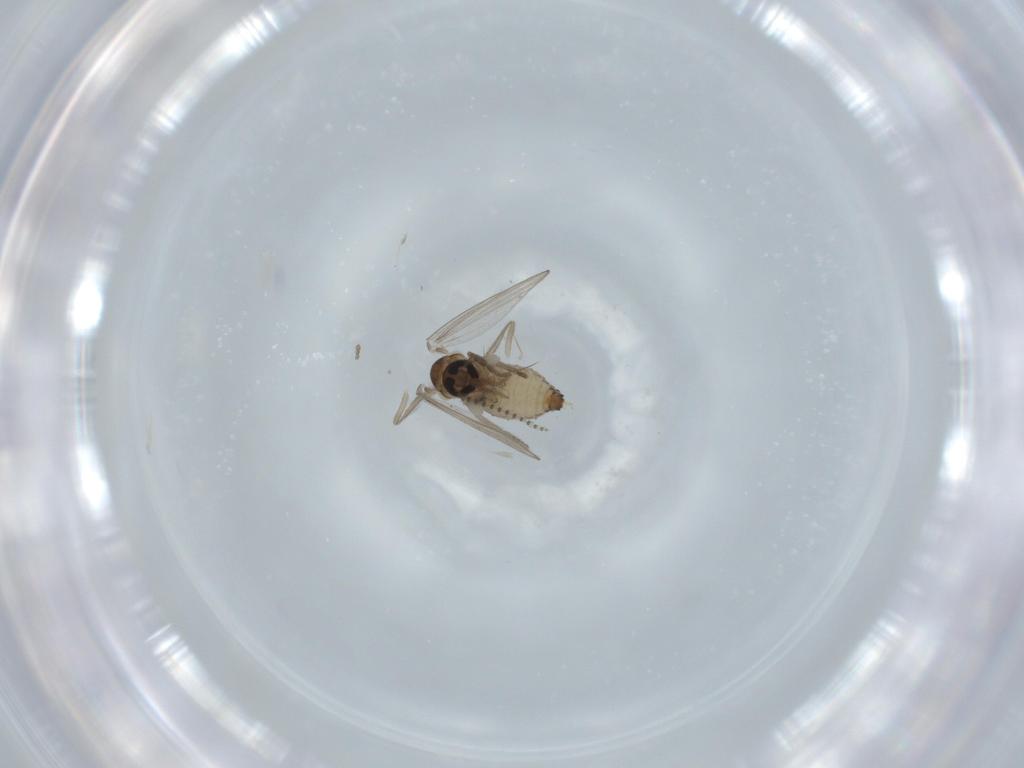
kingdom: Animalia
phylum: Arthropoda
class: Insecta
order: Diptera
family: Psychodidae
